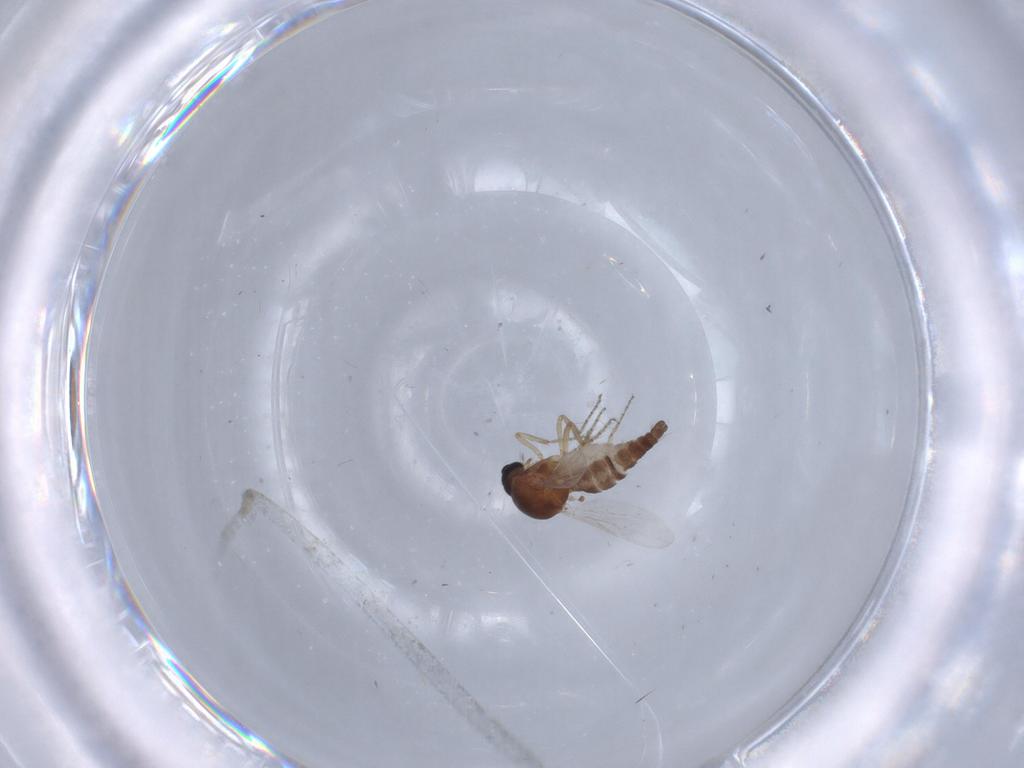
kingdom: Animalia
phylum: Arthropoda
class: Insecta
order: Diptera
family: Ceratopogonidae
